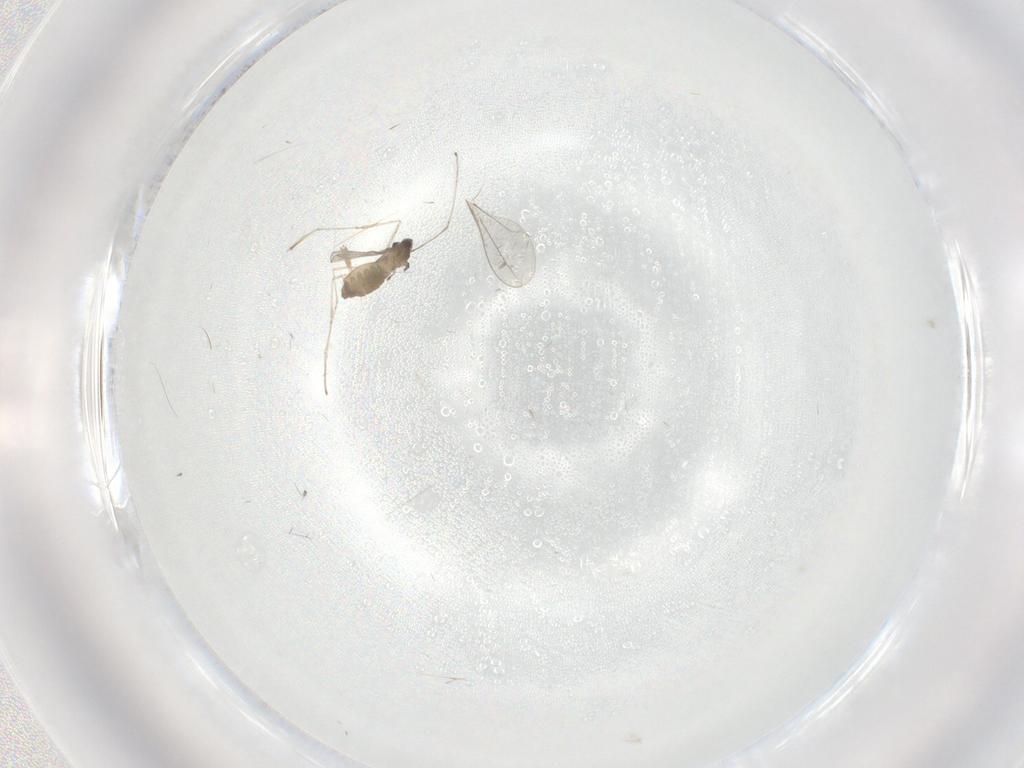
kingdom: Animalia
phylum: Arthropoda
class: Insecta
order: Diptera
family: Cecidomyiidae
